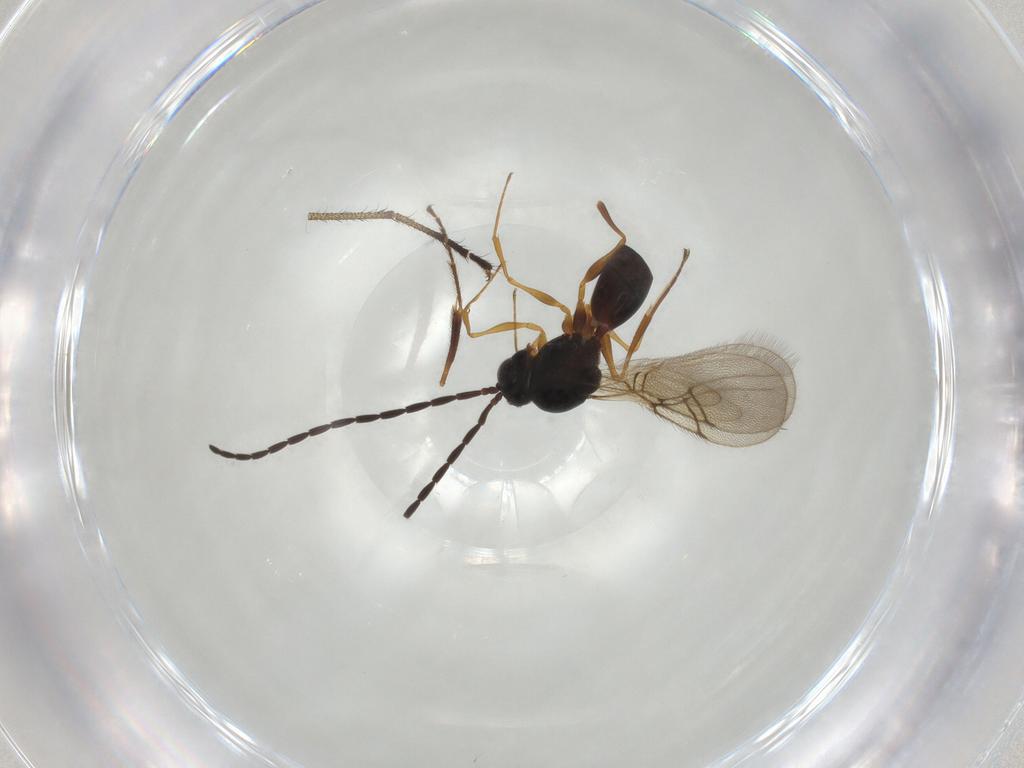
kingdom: Animalia
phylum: Arthropoda
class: Insecta
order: Hymenoptera
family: Figitidae
